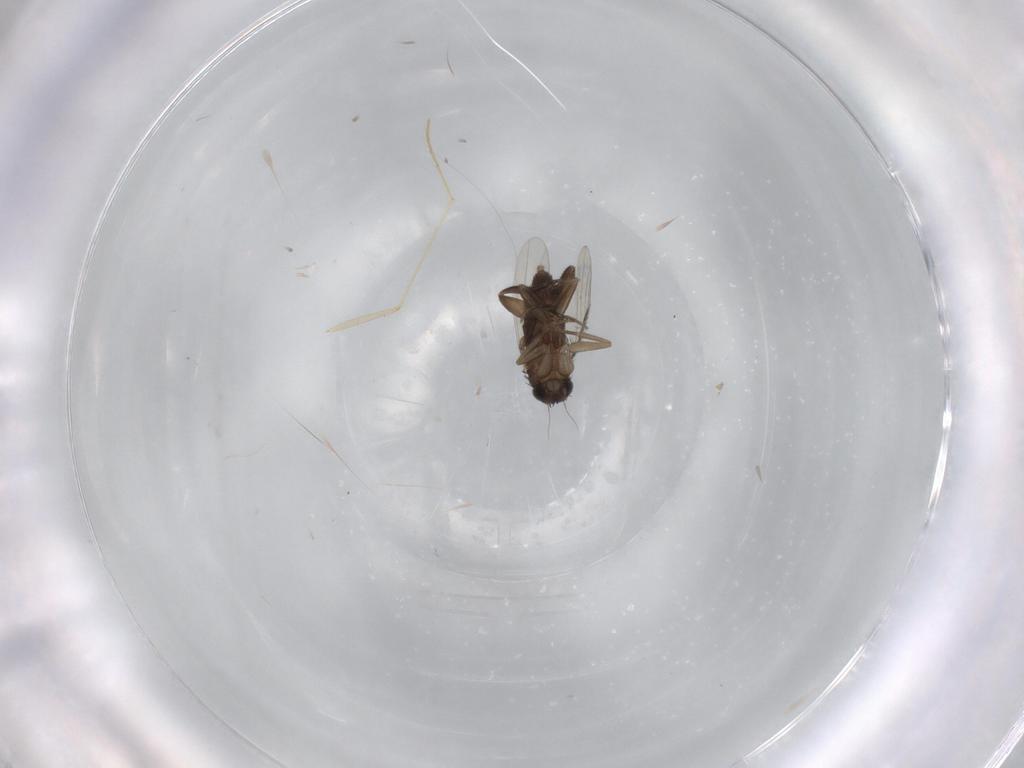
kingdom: Animalia
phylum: Arthropoda
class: Insecta
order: Diptera
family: Phoridae
